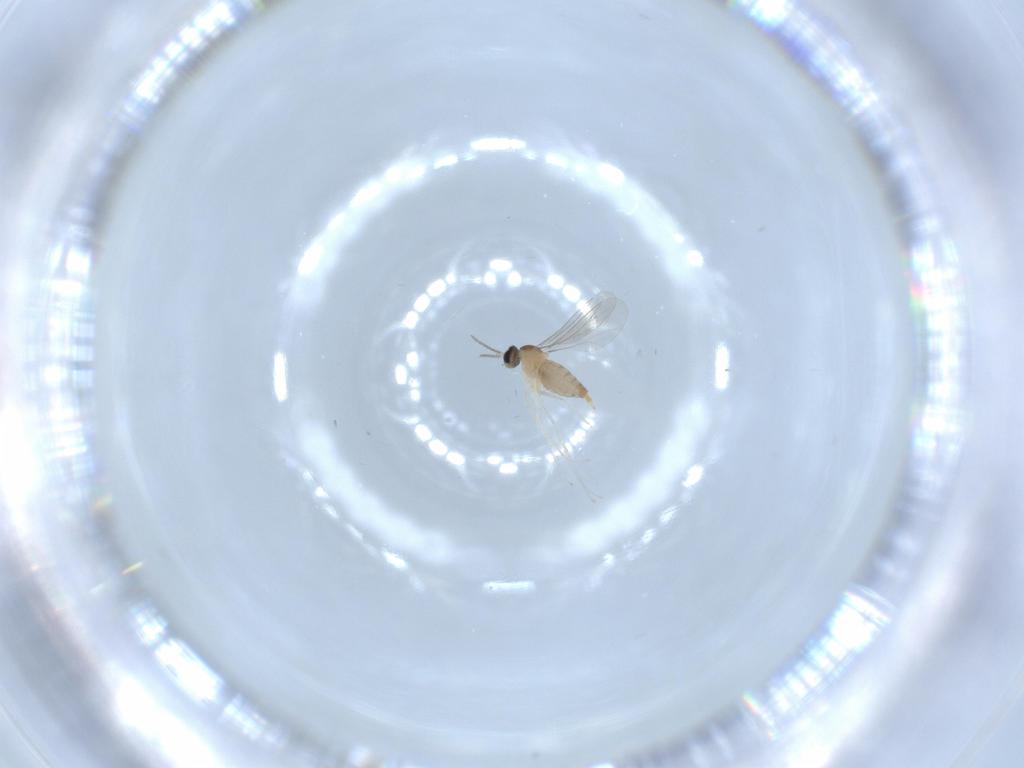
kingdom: Animalia
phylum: Arthropoda
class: Insecta
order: Diptera
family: Cecidomyiidae
